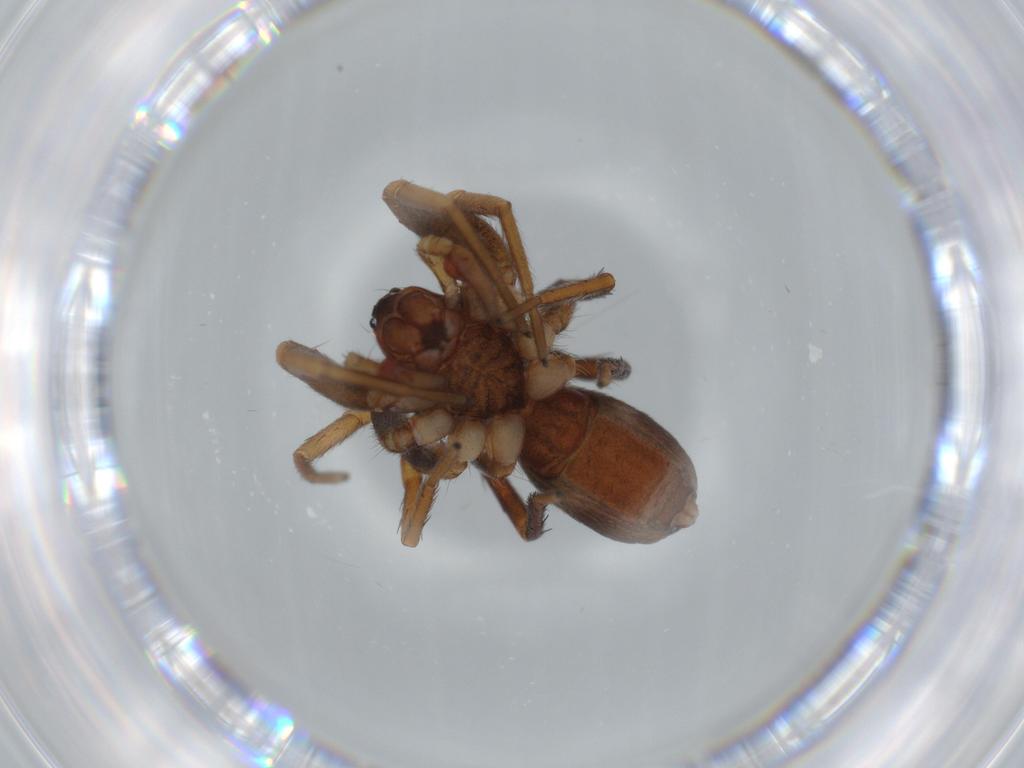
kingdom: Animalia
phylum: Arthropoda
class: Arachnida
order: Araneae
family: Corinnidae
